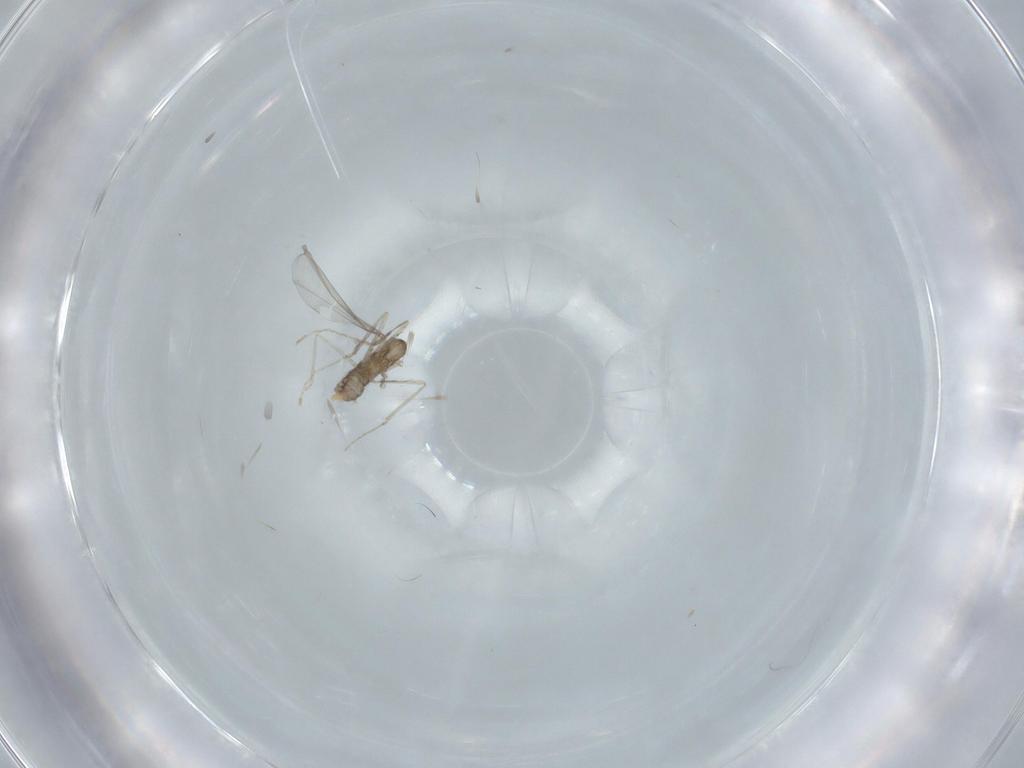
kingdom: Animalia
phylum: Arthropoda
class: Insecta
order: Diptera
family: Cecidomyiidae
